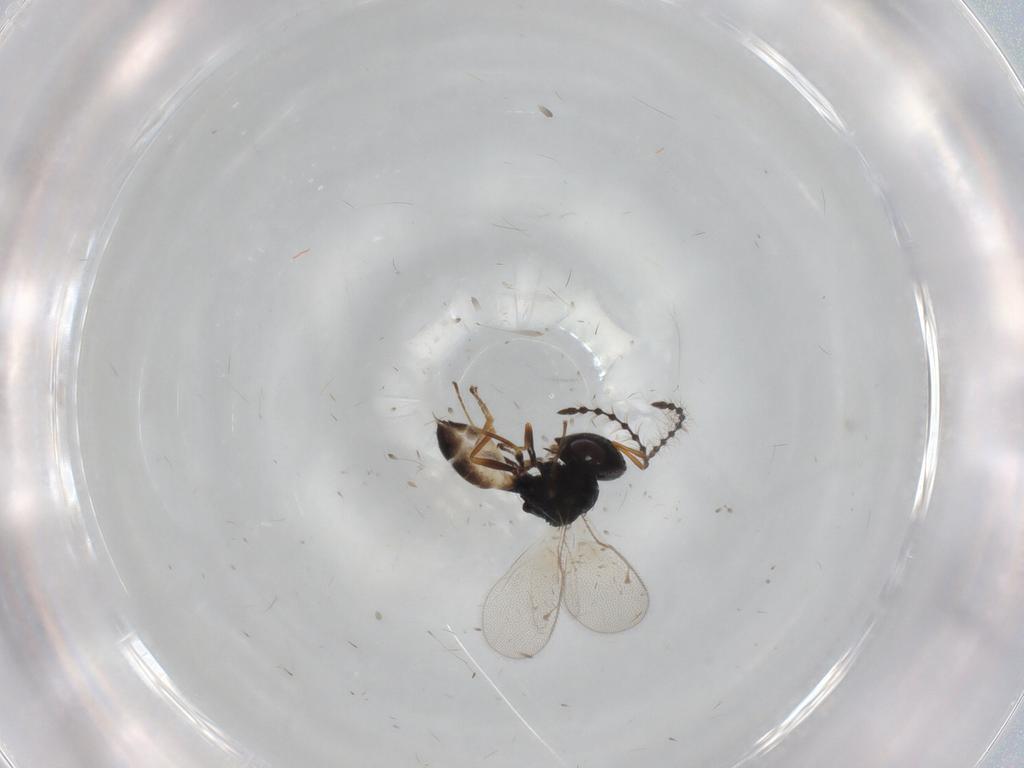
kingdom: Animalia
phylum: Arthropoda
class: Insecta
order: Hymenoptera
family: Pteromalidae
